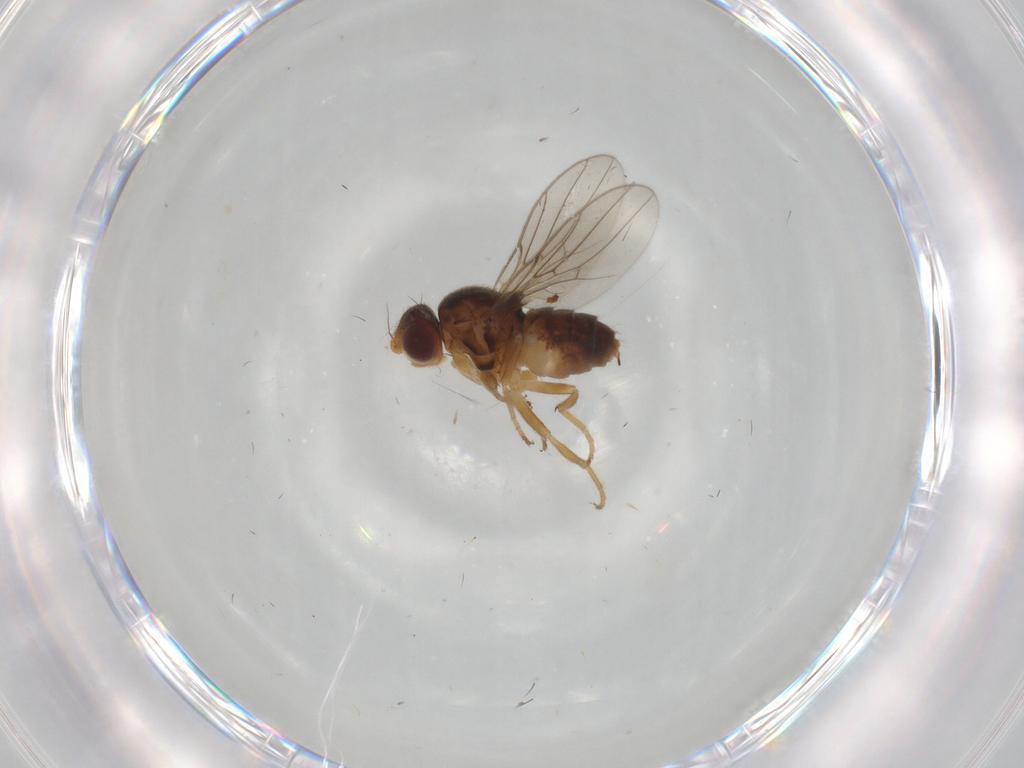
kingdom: Animalia
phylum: Arthropoda
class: Insecta
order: Diptera
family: Chloropidae
